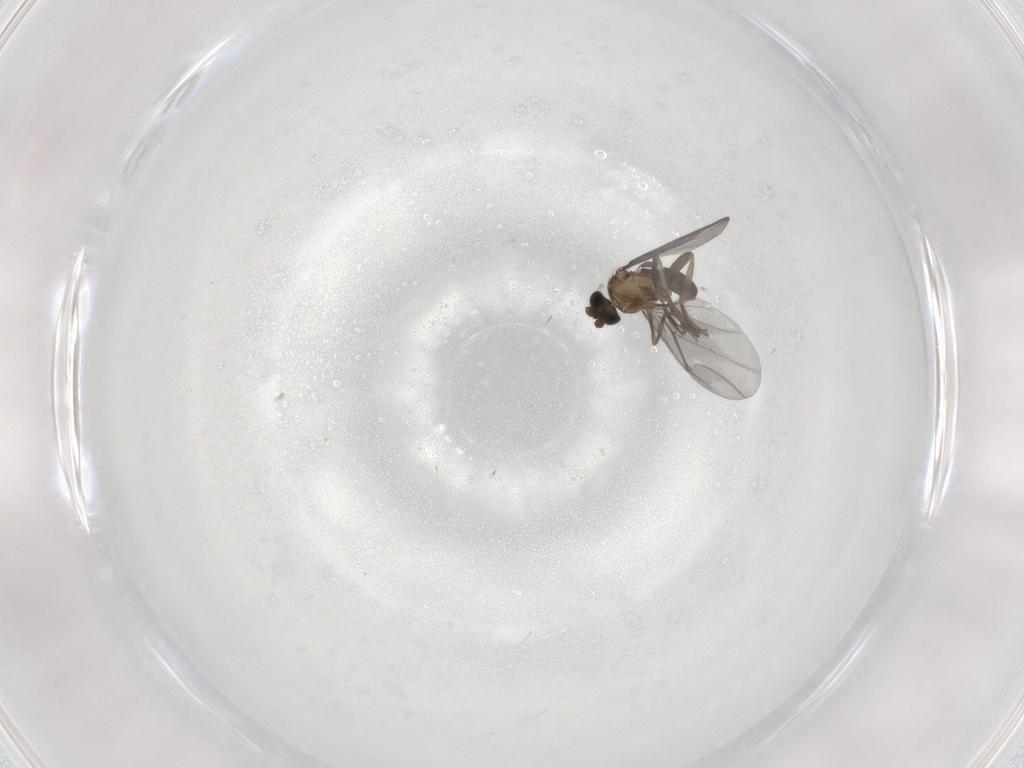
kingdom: Animalia
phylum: Arthropoda
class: Insecta
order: Diptera
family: Phoridae
